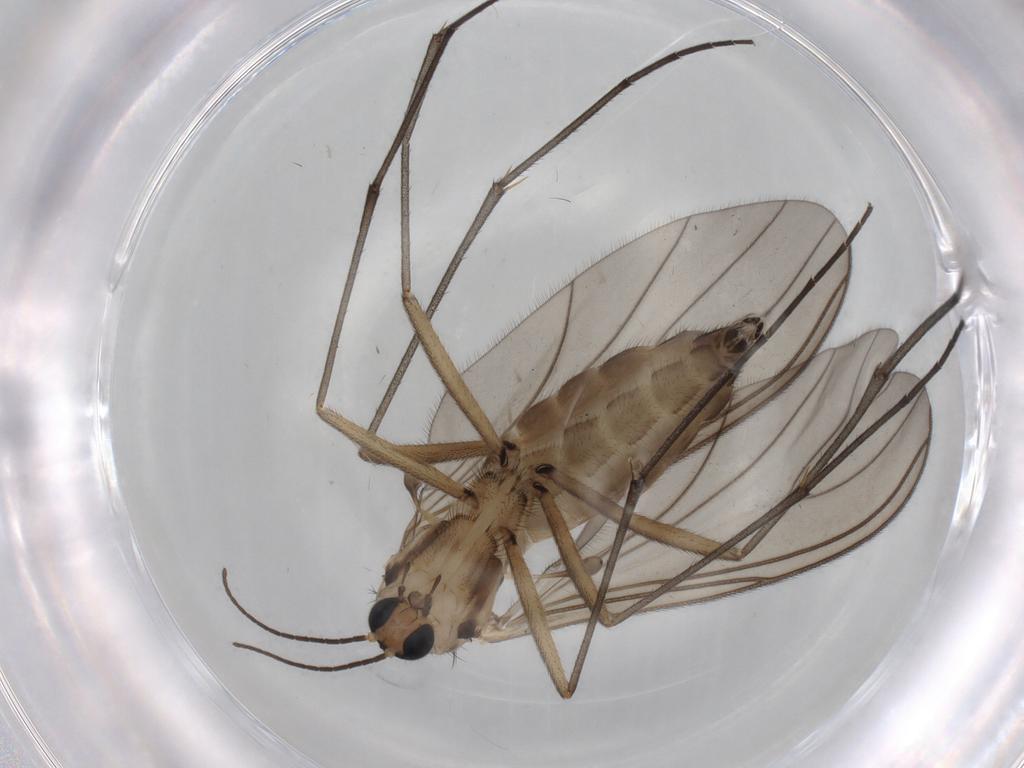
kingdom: Animalia
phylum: Arthropoda
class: Insecta
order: Diptera
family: Sciaridae
